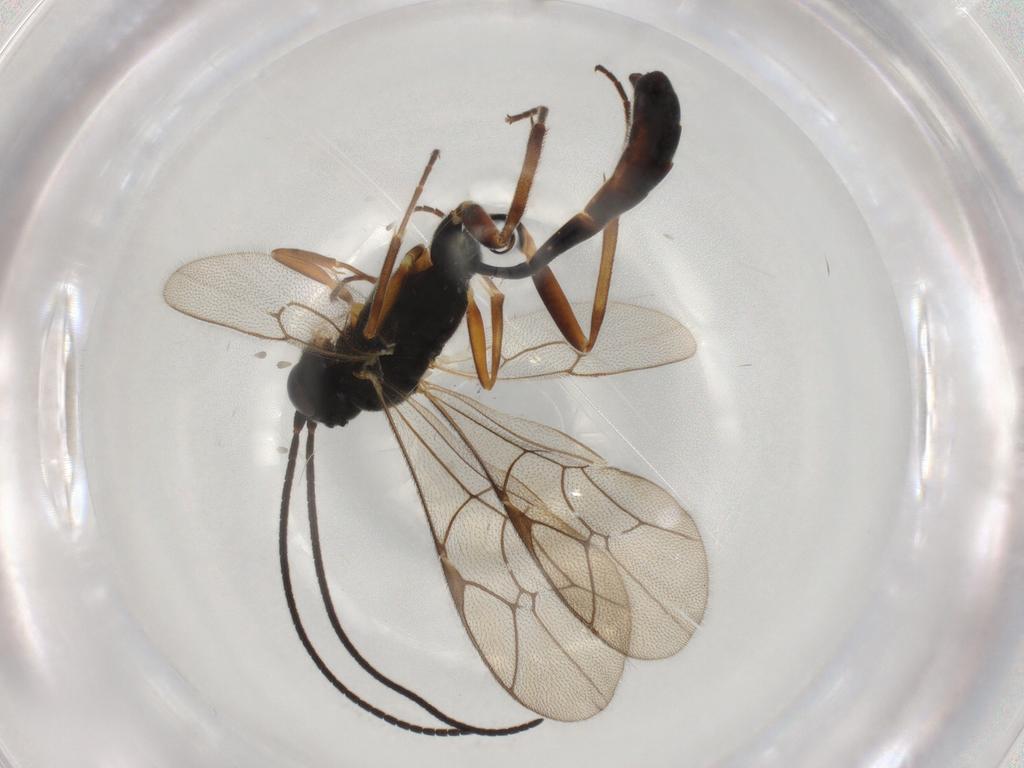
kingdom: Animalia
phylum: Arthropoda
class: Insecta
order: Hymenoptera
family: Ichneumonidae
